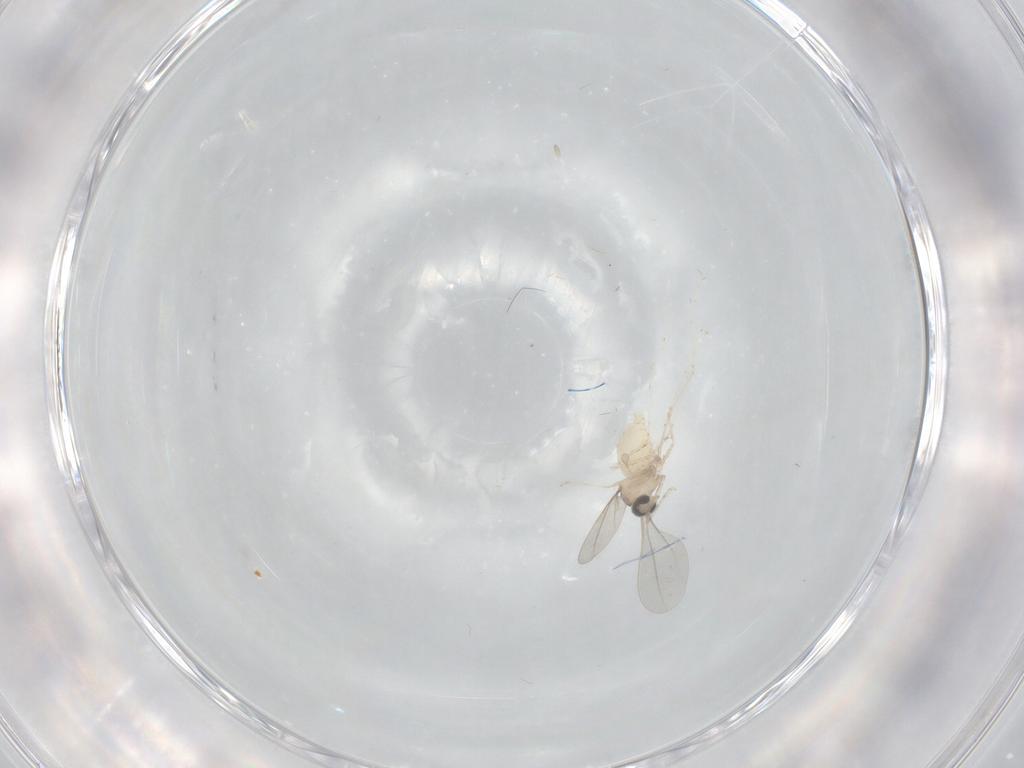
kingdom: Animalia
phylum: Arthropoda
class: Insecta
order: Diptera
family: Cecidomyiidae
